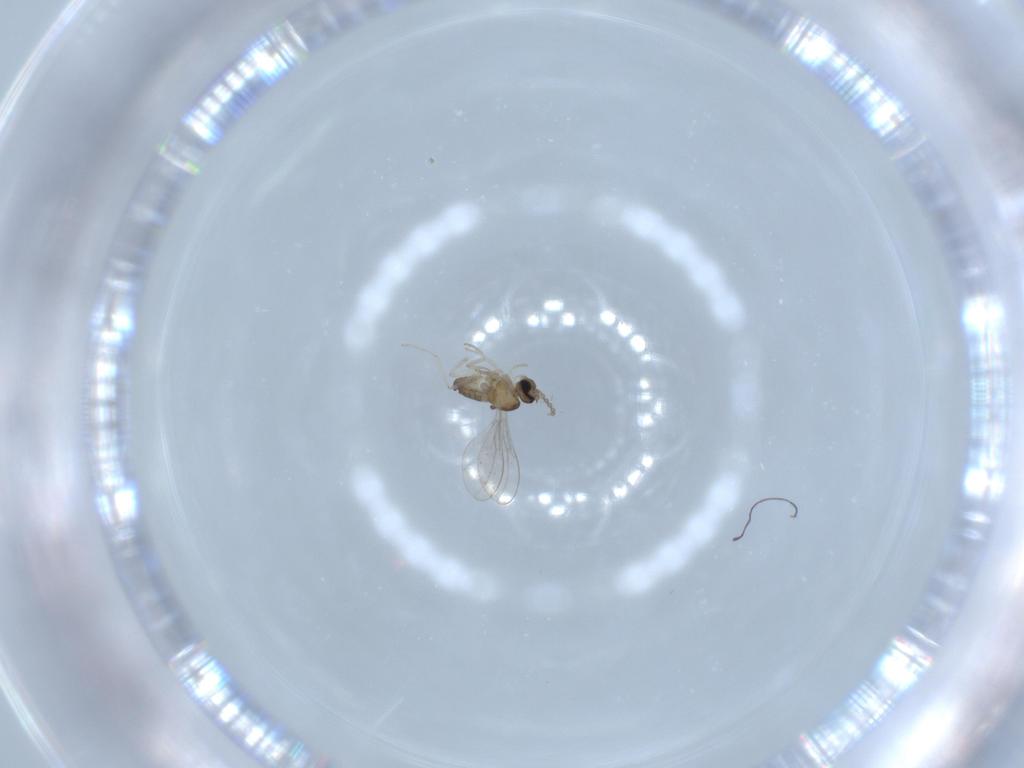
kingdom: Animalia
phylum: Arthropoda
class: Insecta
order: Diptera
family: Cecidomyiidae
